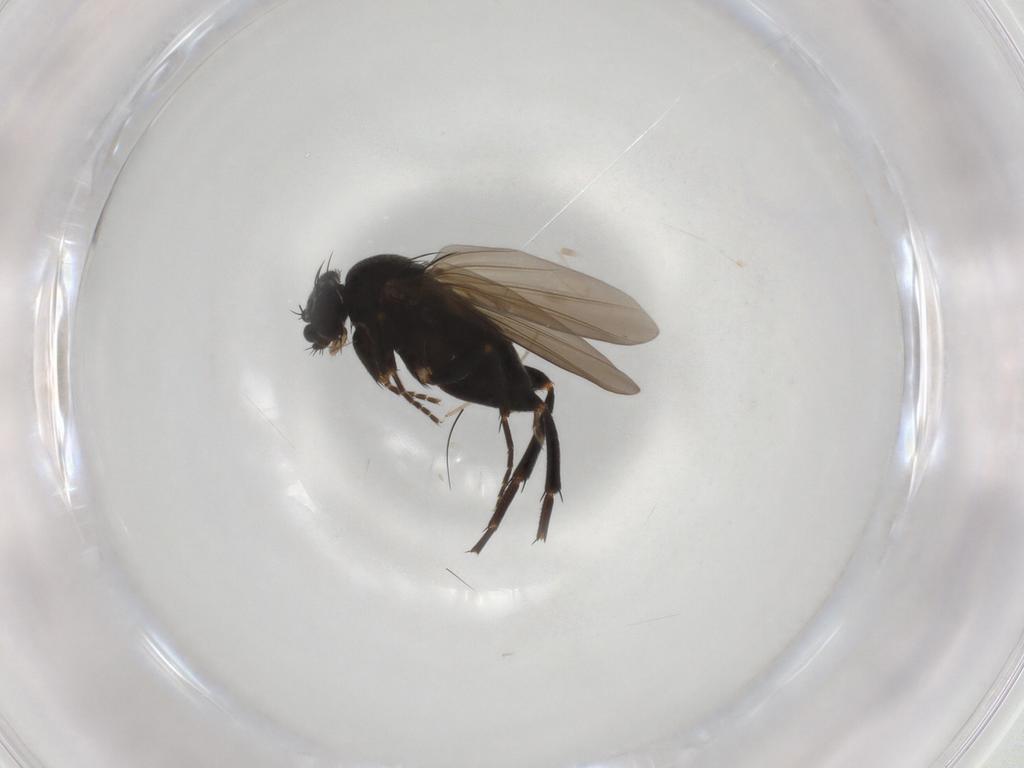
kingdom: Animalia
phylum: Arthropoda
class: Insecta
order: Diptera
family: Phoridae
